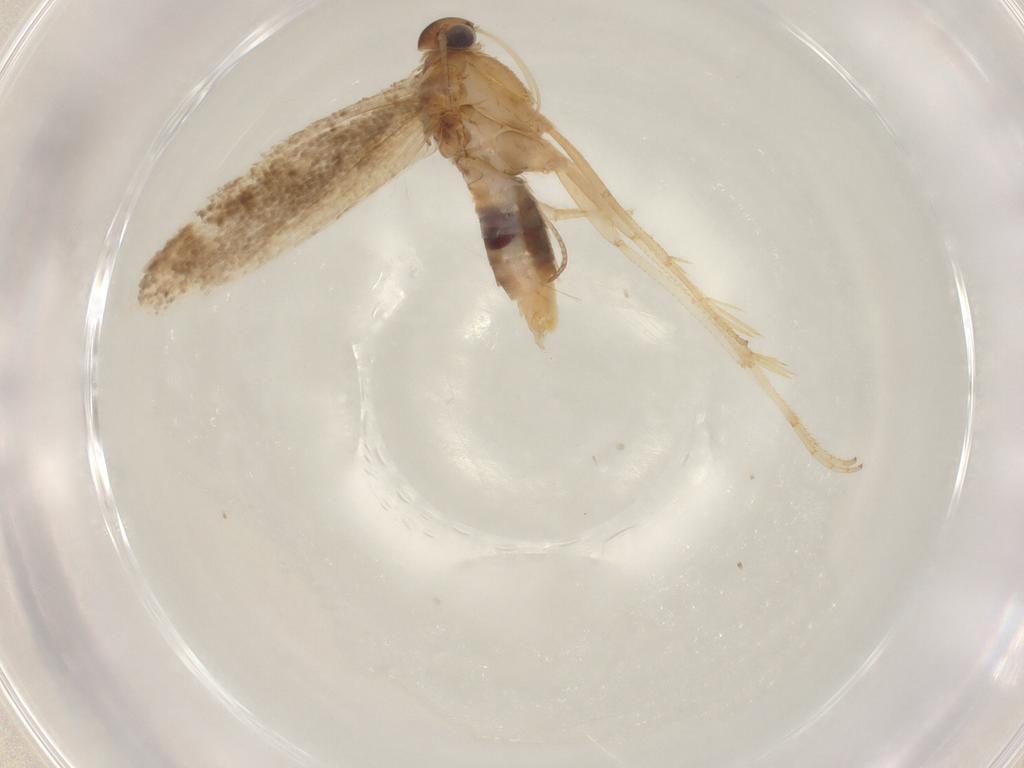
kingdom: Animalia
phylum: Arthropoda
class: Insecta
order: Lepidoptera
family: Gelechiidae
